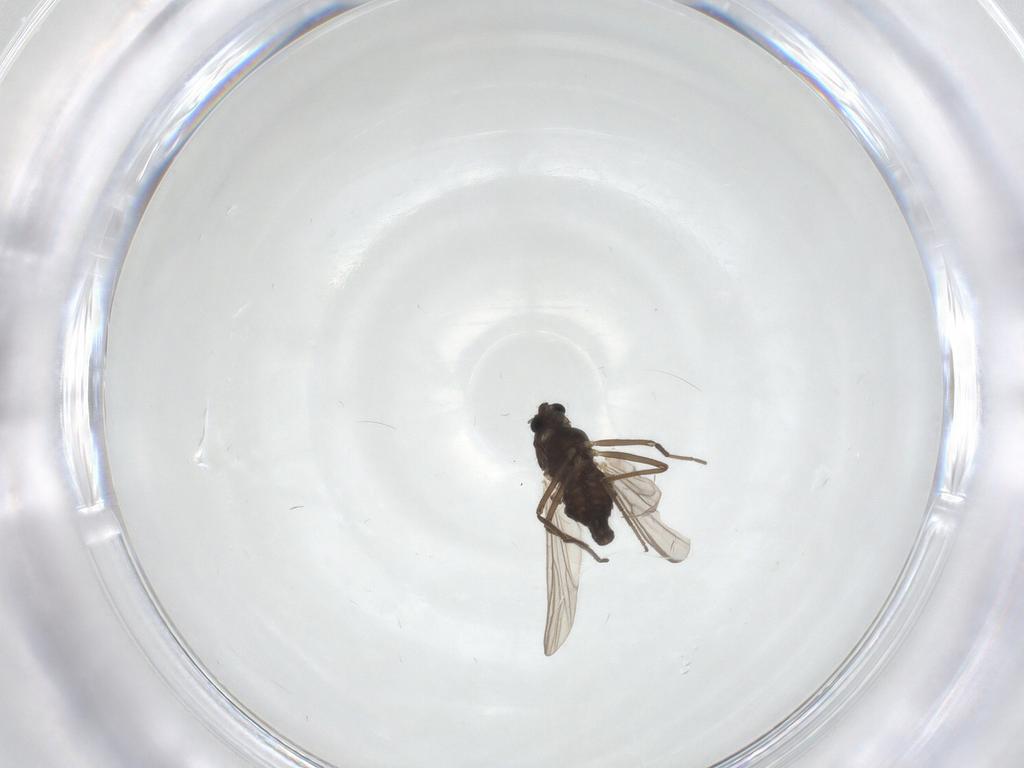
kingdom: Animalia
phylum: Arthropoda
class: Insecta
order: Diptera
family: Chironomidae
